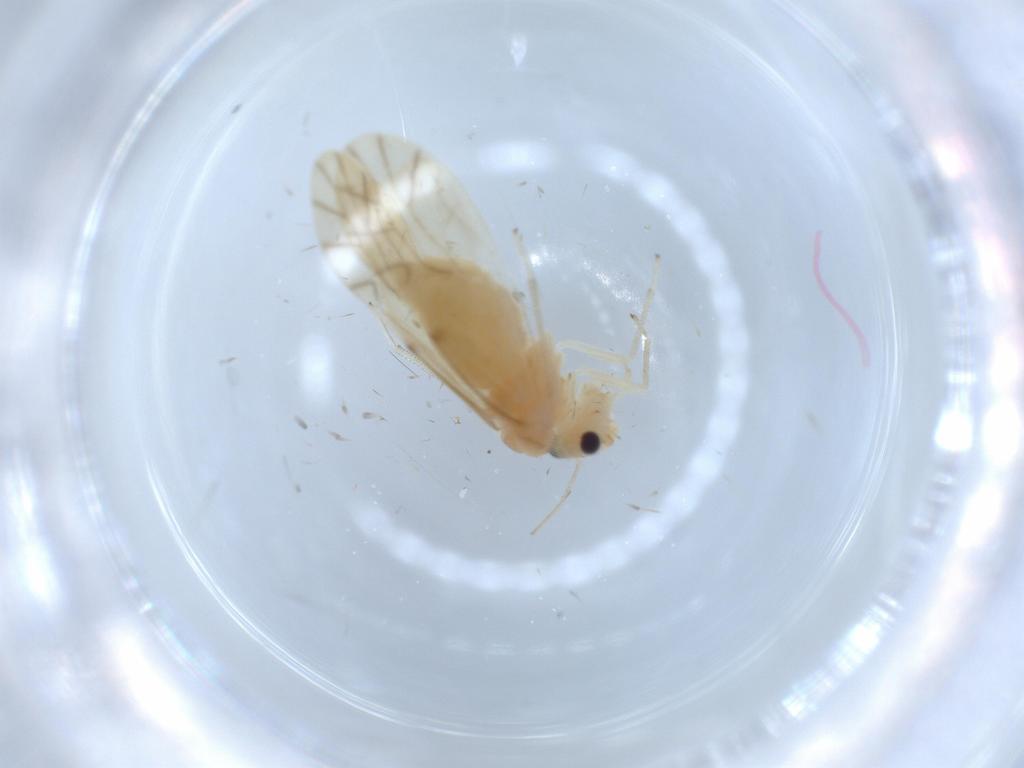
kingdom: Animalia
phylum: Arthropoda
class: Insecta
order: Psocodea
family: Caeciliusidae
